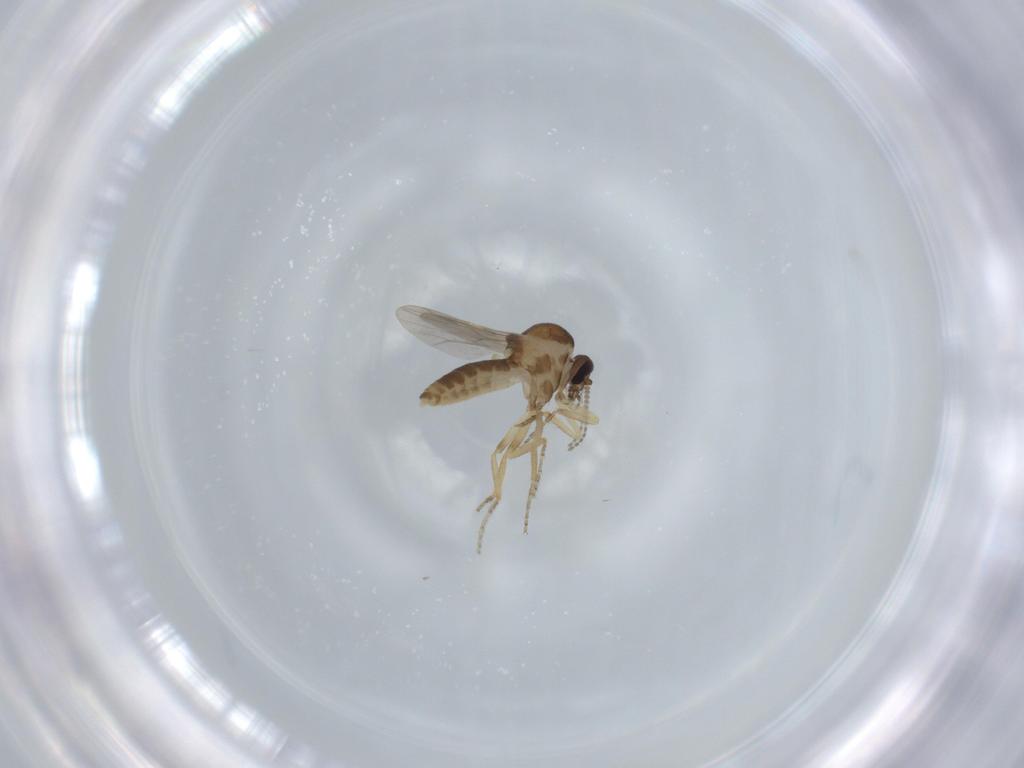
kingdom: Animalia
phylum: Arthropoda
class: Insecta
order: Diptera
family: Ceratopogonidae
